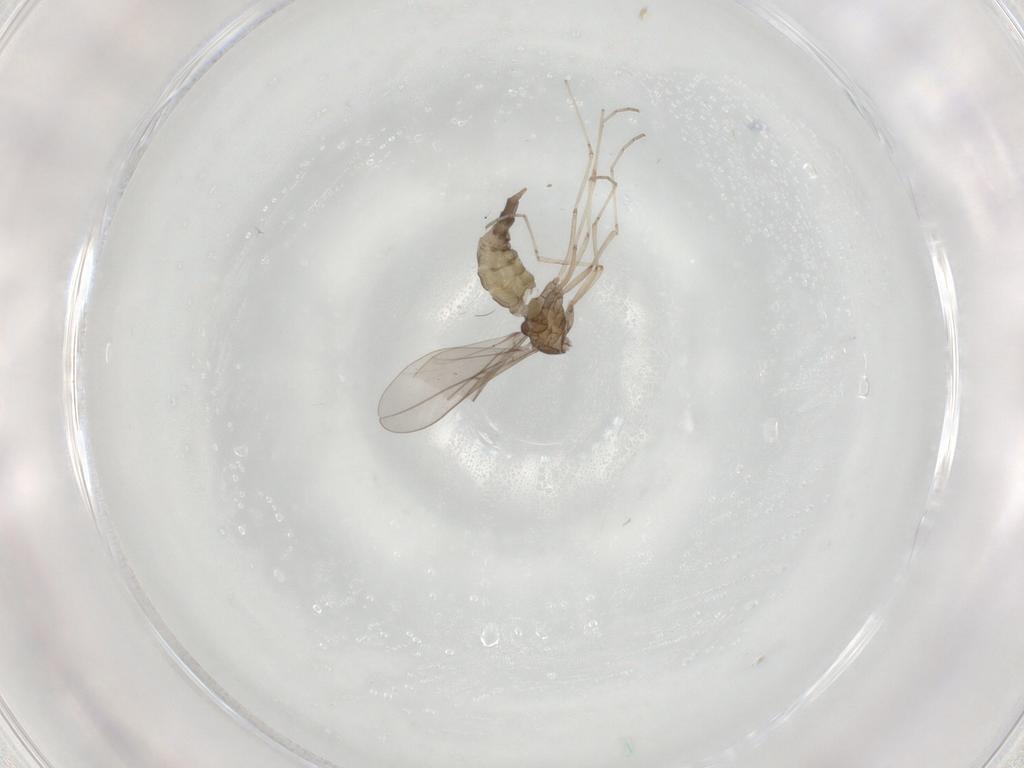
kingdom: Animalia
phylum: Arthropoda
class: Insecta
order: Diptera
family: Cecidomyiidae
